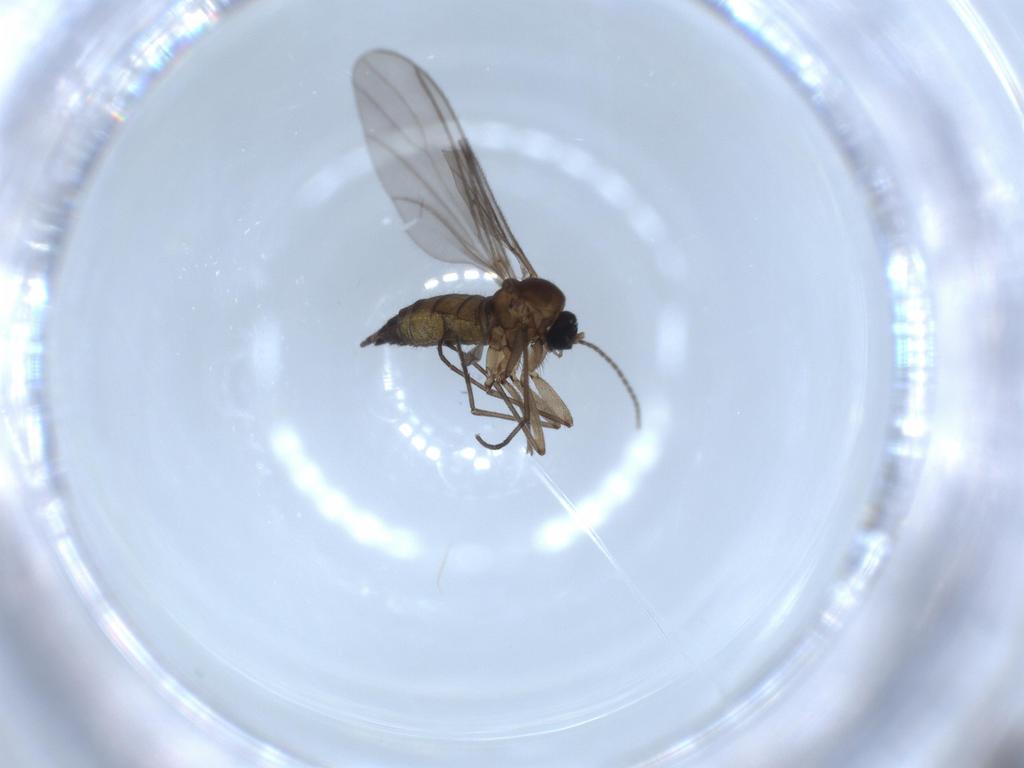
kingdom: Animalia
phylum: Arthropoda
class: Insecta
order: Diptera
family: Sciaridae
